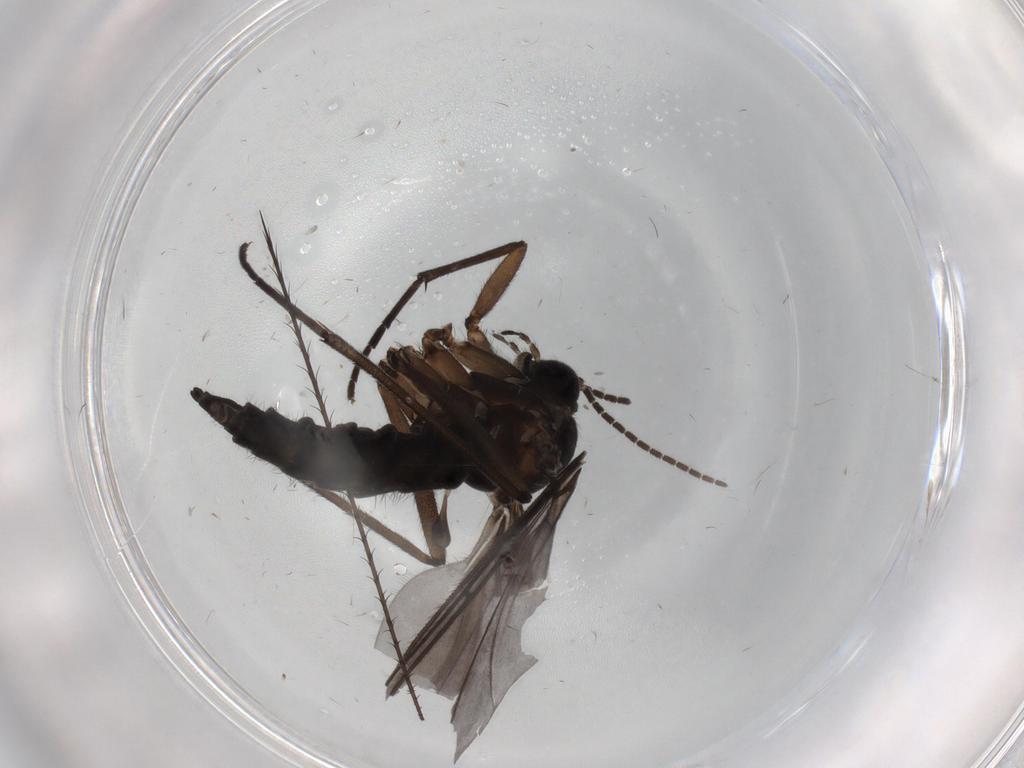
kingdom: Animalia
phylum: Arthropoda
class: Insecta
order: Diptera
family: Sciaridae
